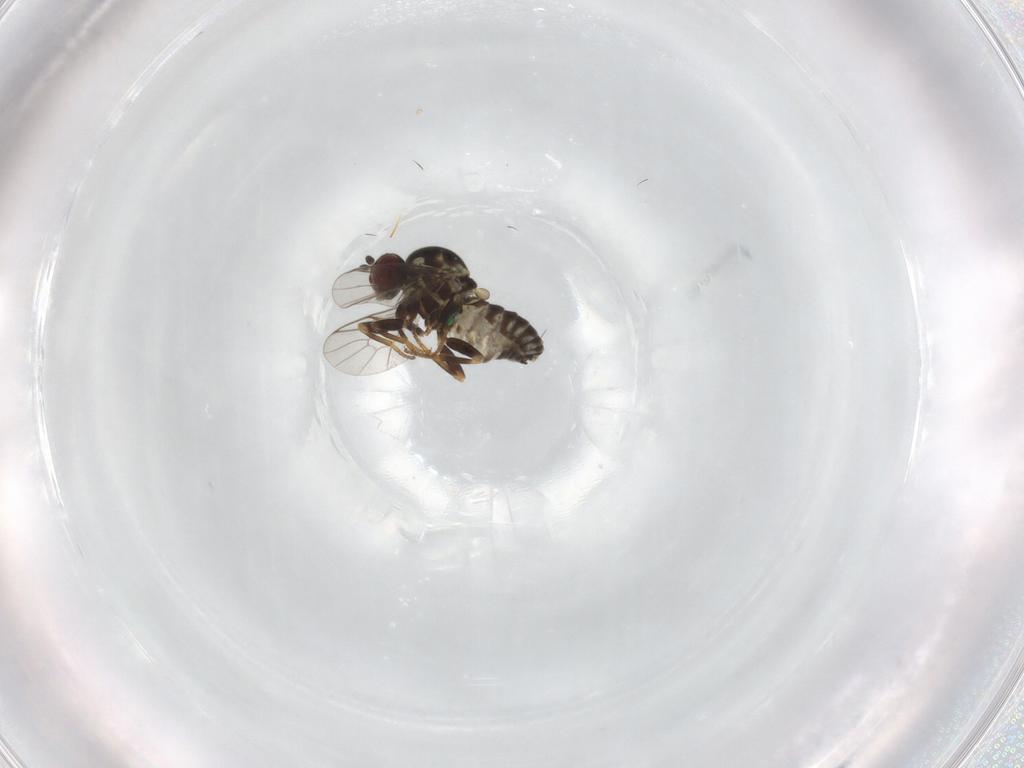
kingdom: Animalia
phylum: Arthropoda
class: Insecta
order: Diptera
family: Bombyliidae
